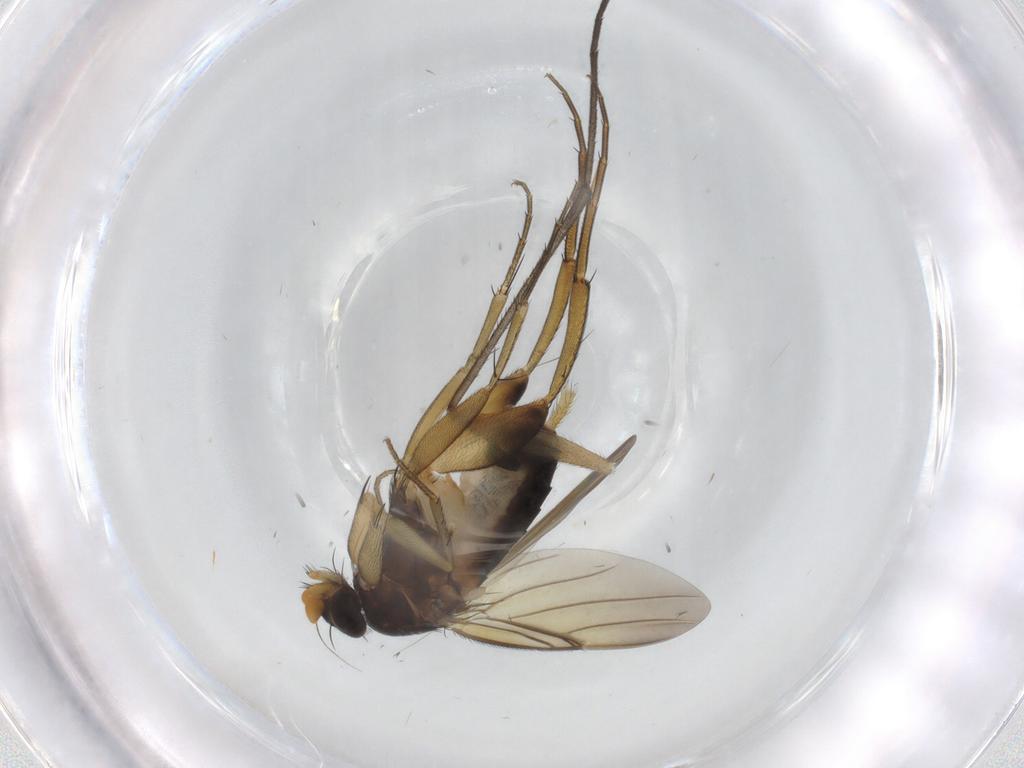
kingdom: Animalia
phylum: Arthropoda
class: Insecta
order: Diptera
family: Phoridae
